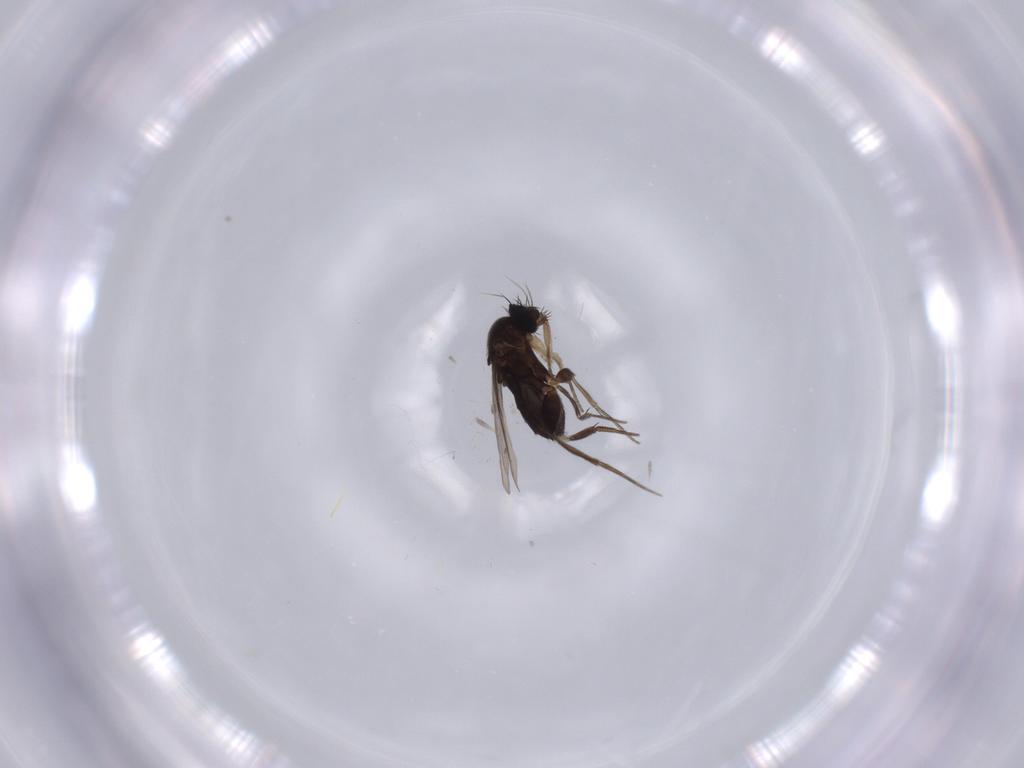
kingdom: Animalia
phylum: Arthropoda
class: Insecta
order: Diptera
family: Phoridae
